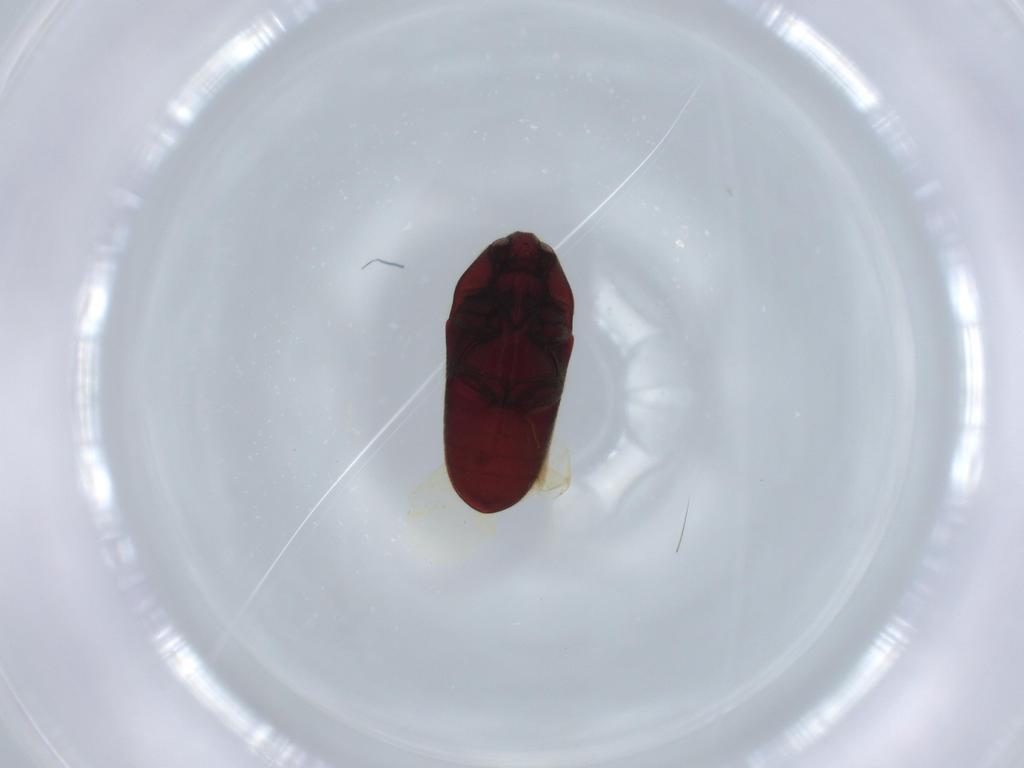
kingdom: Animalia
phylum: Arthropoda
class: Insecta
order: Coleoptera
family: Throscidae
